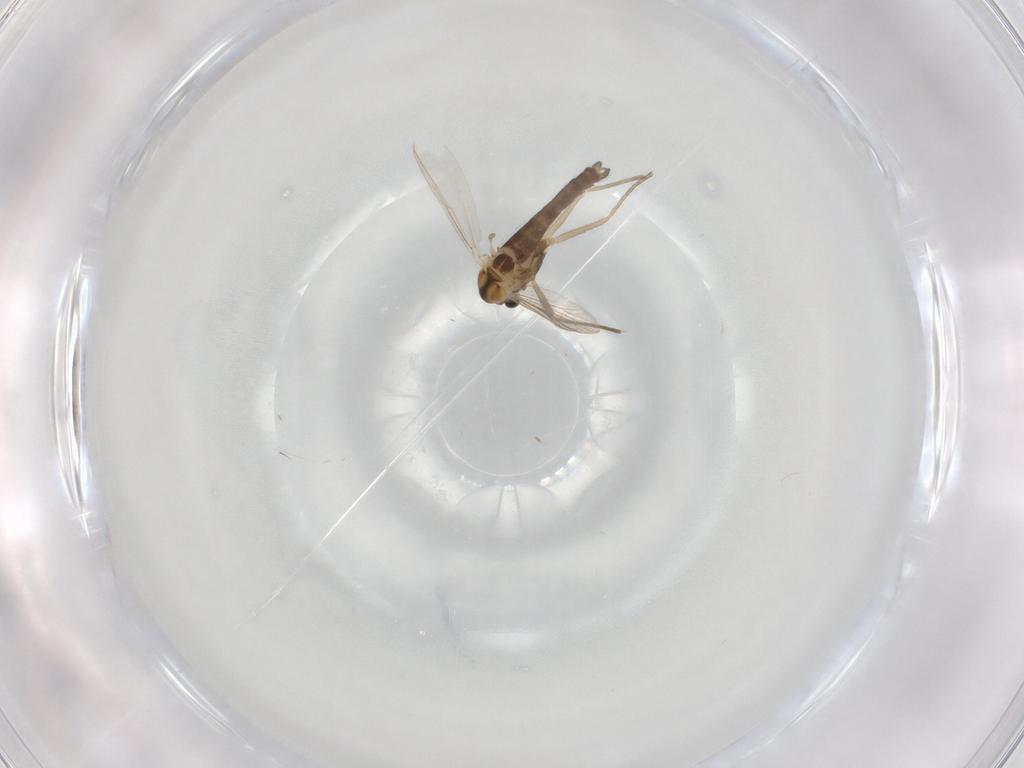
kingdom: Animalia
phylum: Arthropoda
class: Insecta
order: Diptera
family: Chironomidae
